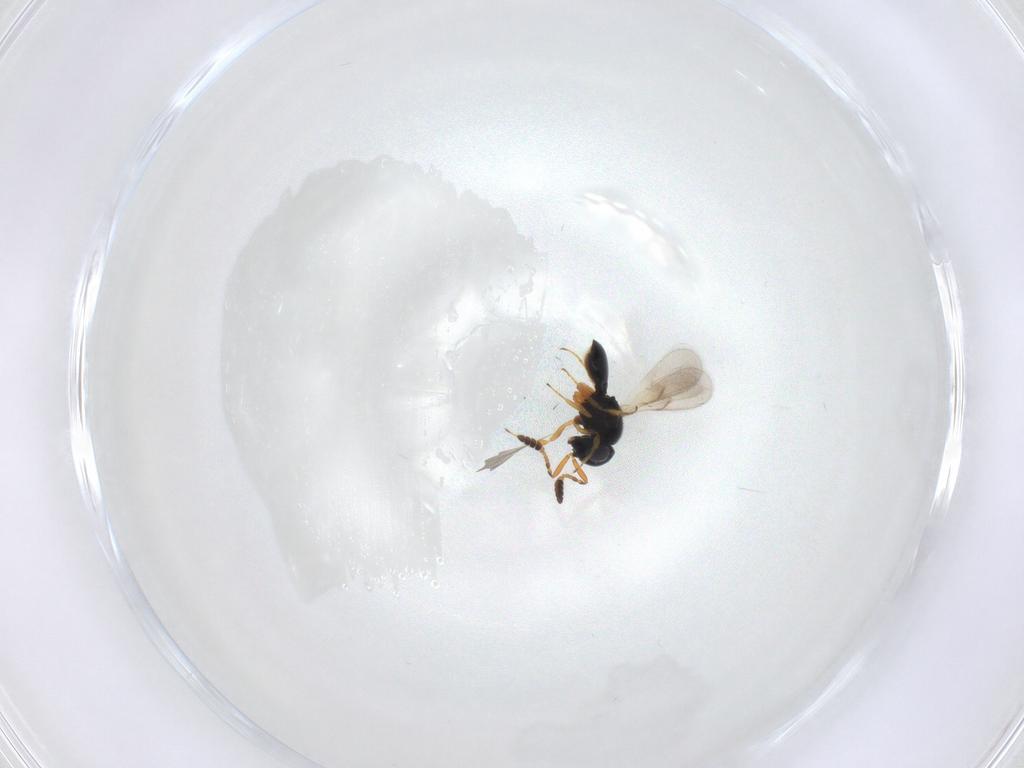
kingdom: Animalia
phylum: Arthropoda
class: Insecta
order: Hymenoptera
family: Scelionidae
